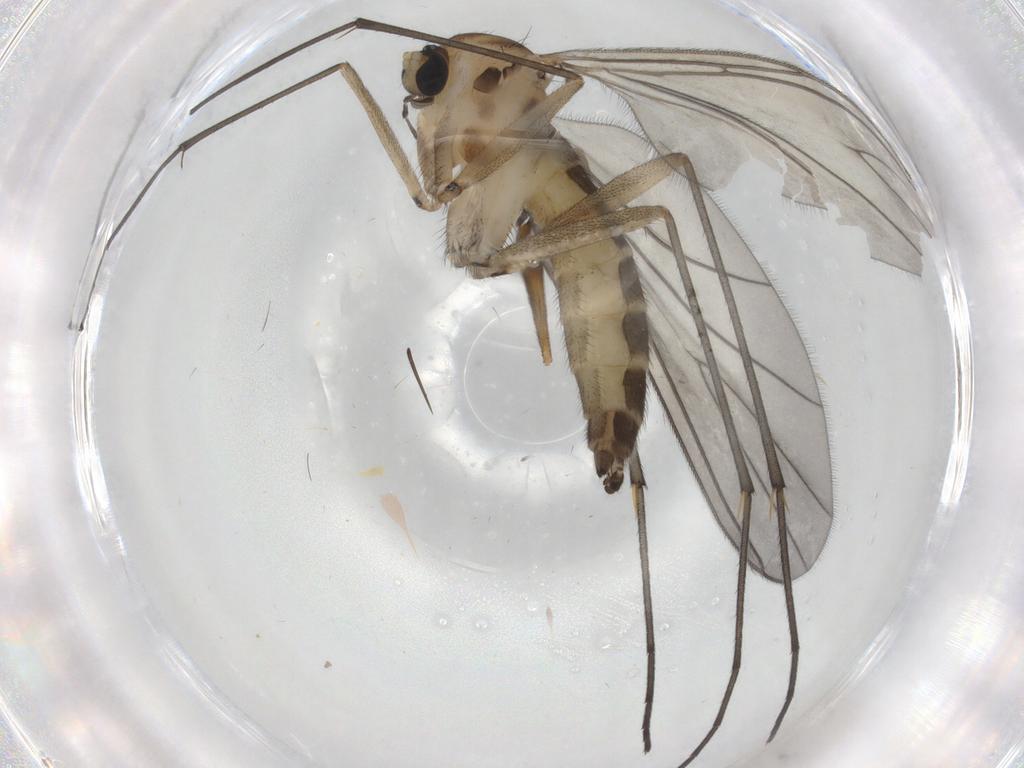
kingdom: Animalia
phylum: Arthropoda
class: Insecta
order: Diptera
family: Sciaridae
